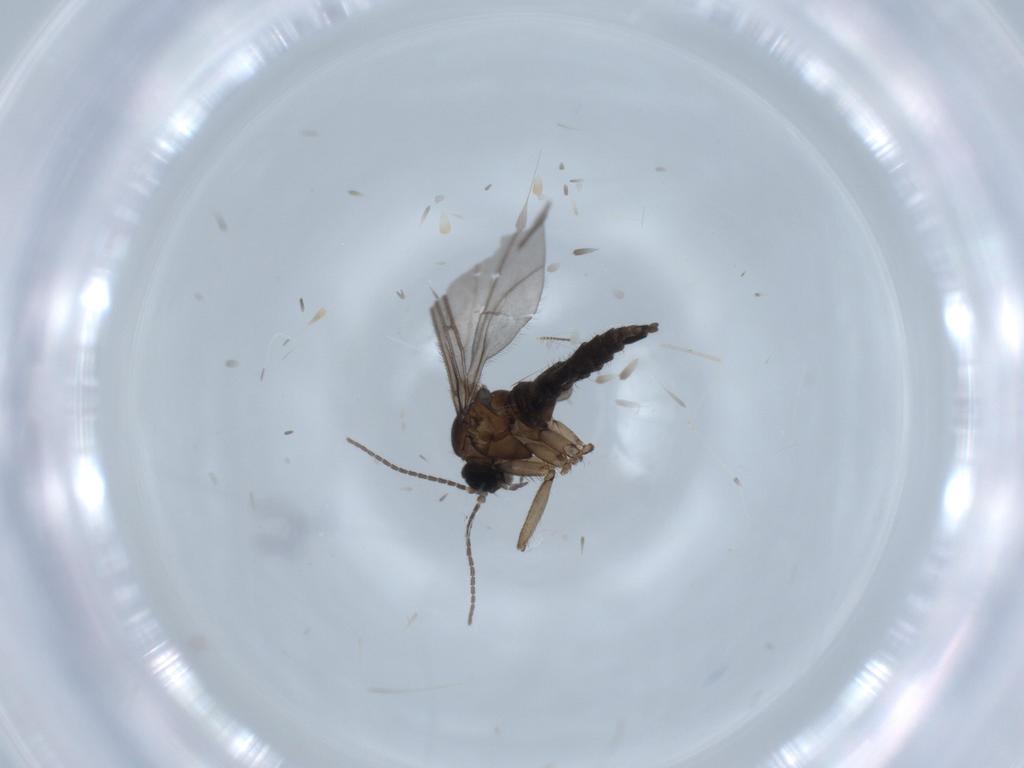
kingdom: Animalia
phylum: Arthropoda
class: Insecta
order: Diptera
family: Sciaridae
